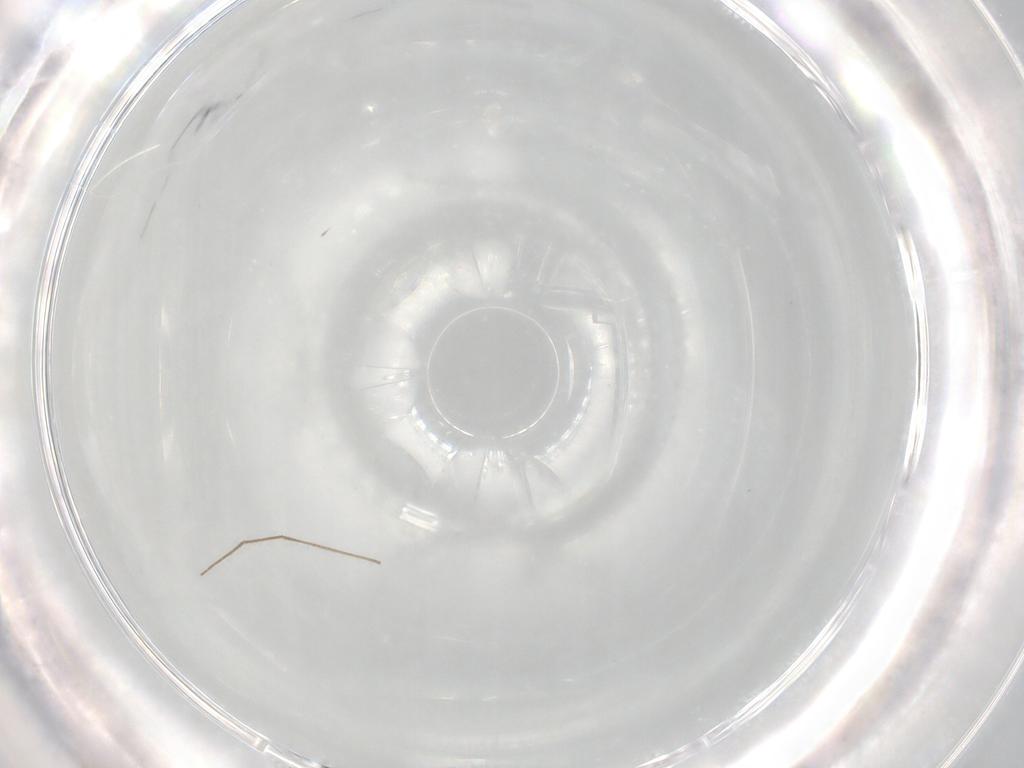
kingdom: Animalia
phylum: Arthropoda
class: Insecta
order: Diptera
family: Cecidomyiidae
